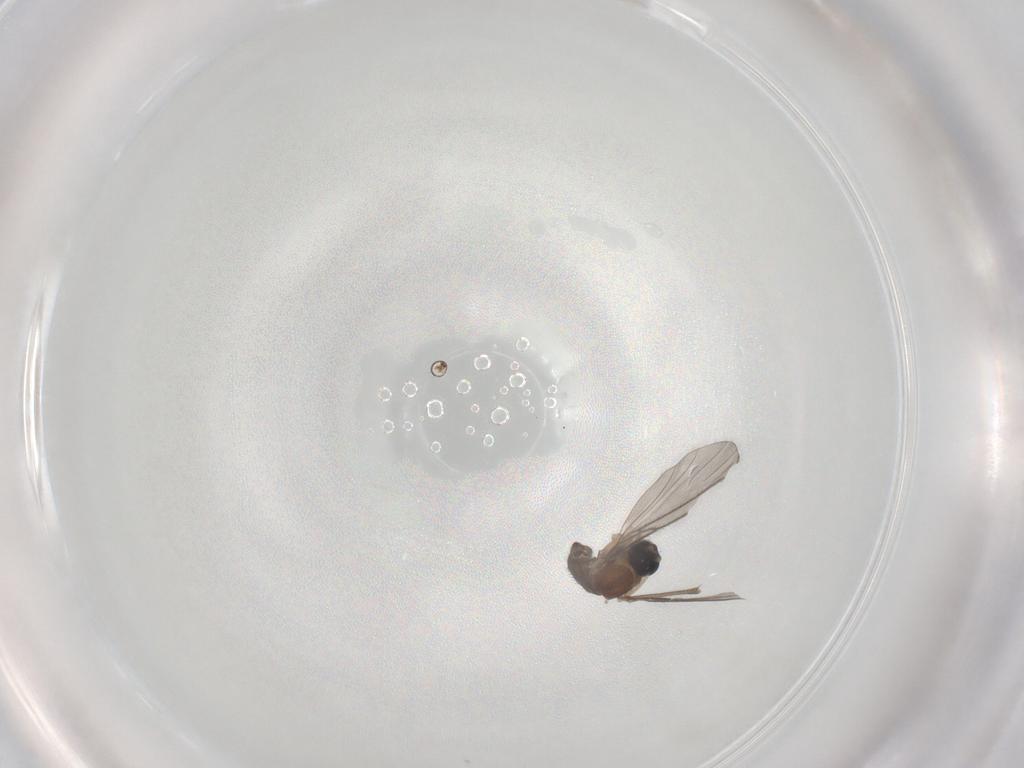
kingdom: Animalia
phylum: Arthropoda
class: Insecta
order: Diptera
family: Sciaridae
